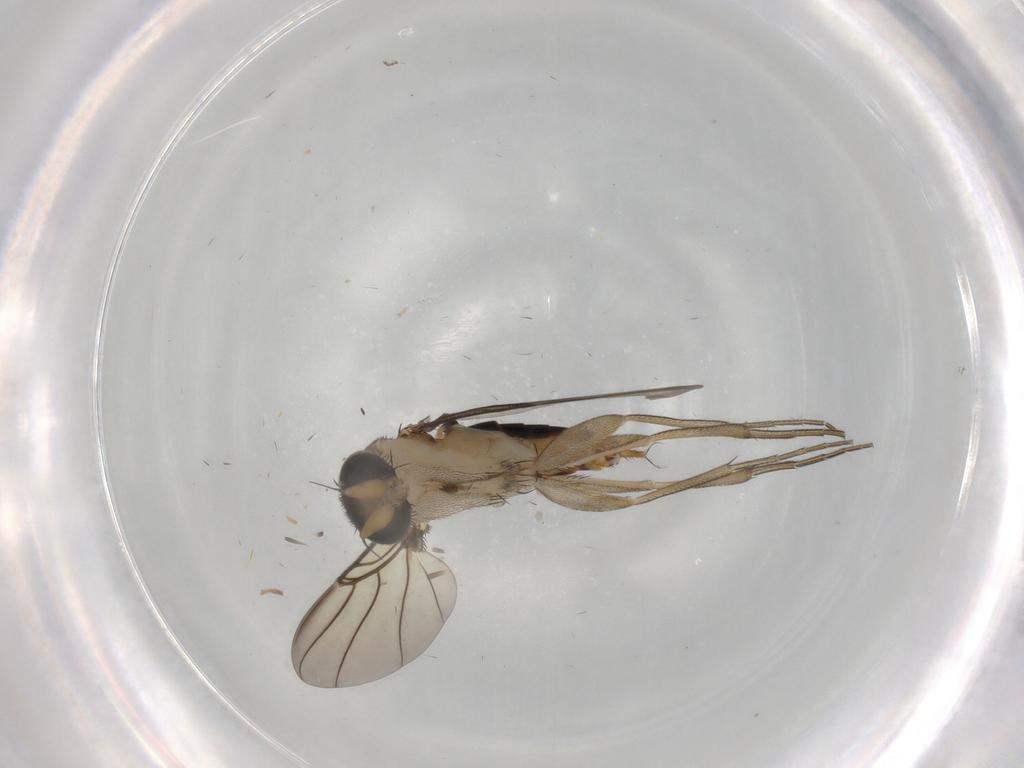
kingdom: Animalia
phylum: Arthropoda
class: Insecta
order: Diptera
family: Phoridae
